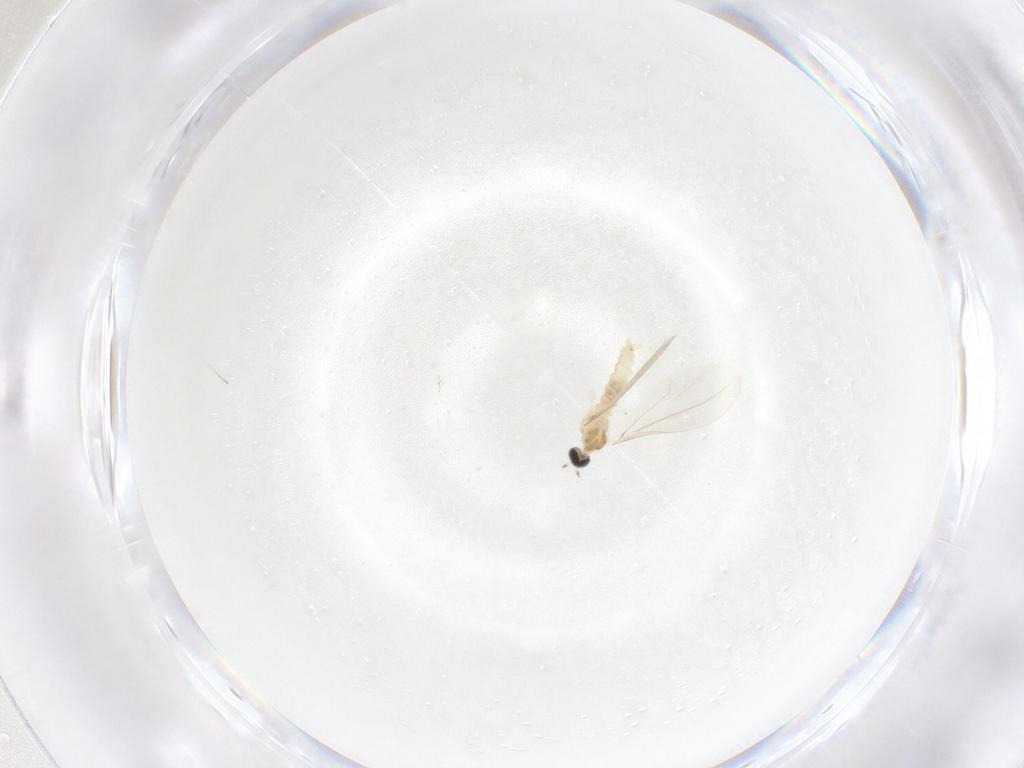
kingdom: Animalia
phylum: Arthropoda
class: Insecta
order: Diptera
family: Cecidomyiidae
